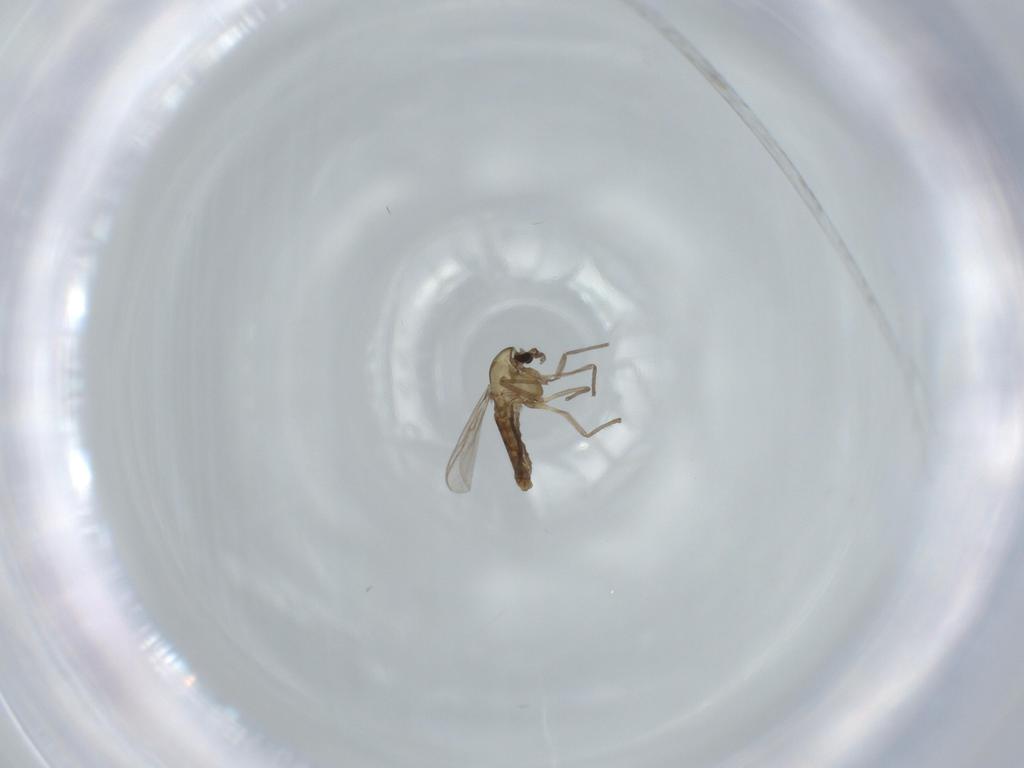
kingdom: Animalia
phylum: Arthropoda
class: Insecta
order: Diptera
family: Chironomidae
